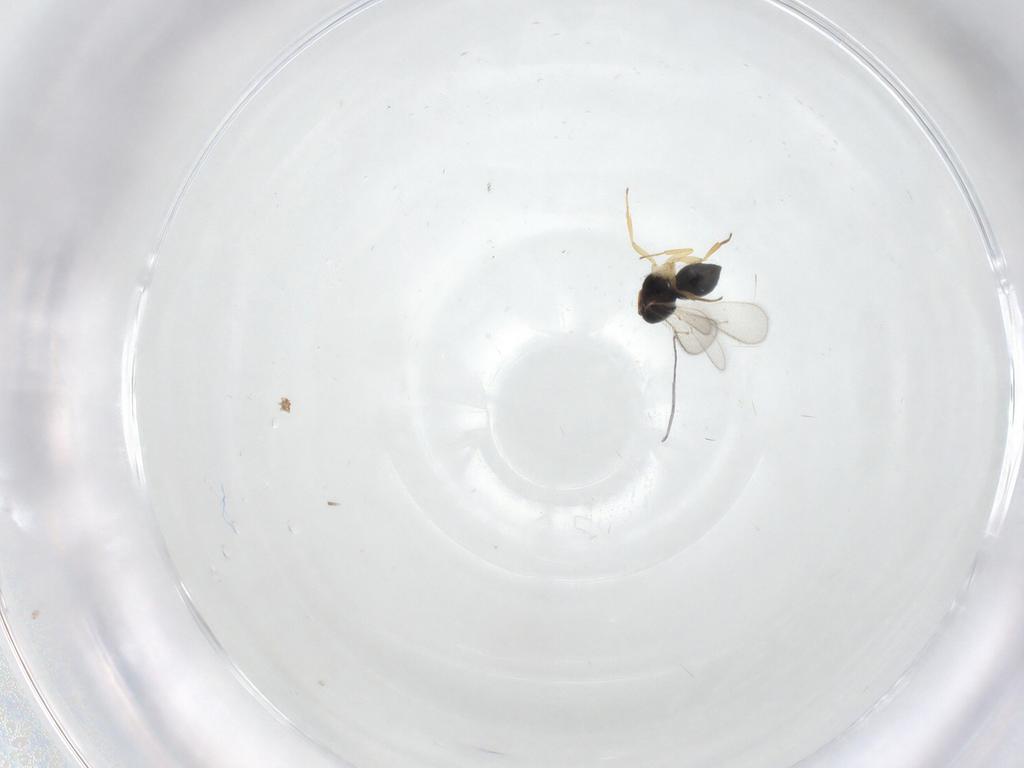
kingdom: Animalia
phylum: Arthropoda
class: Insecta
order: Hymenoptera
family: Scelionidae
